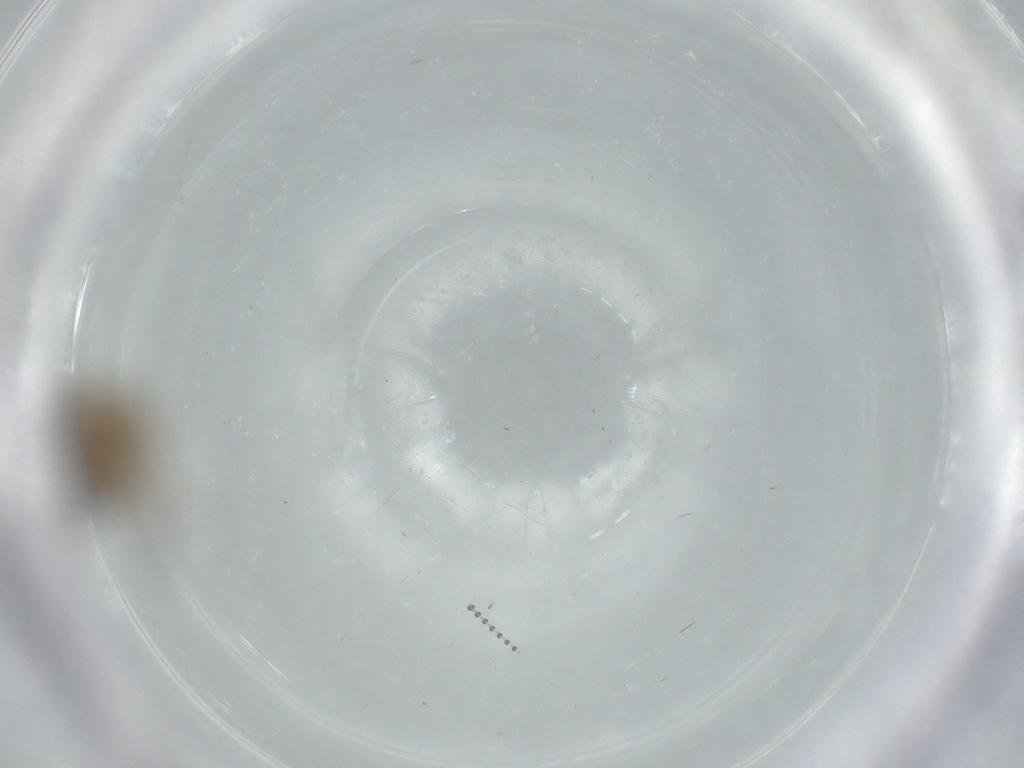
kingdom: Animalia
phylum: Arthropoda
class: Insecta
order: Diptera
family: Psychodidae
